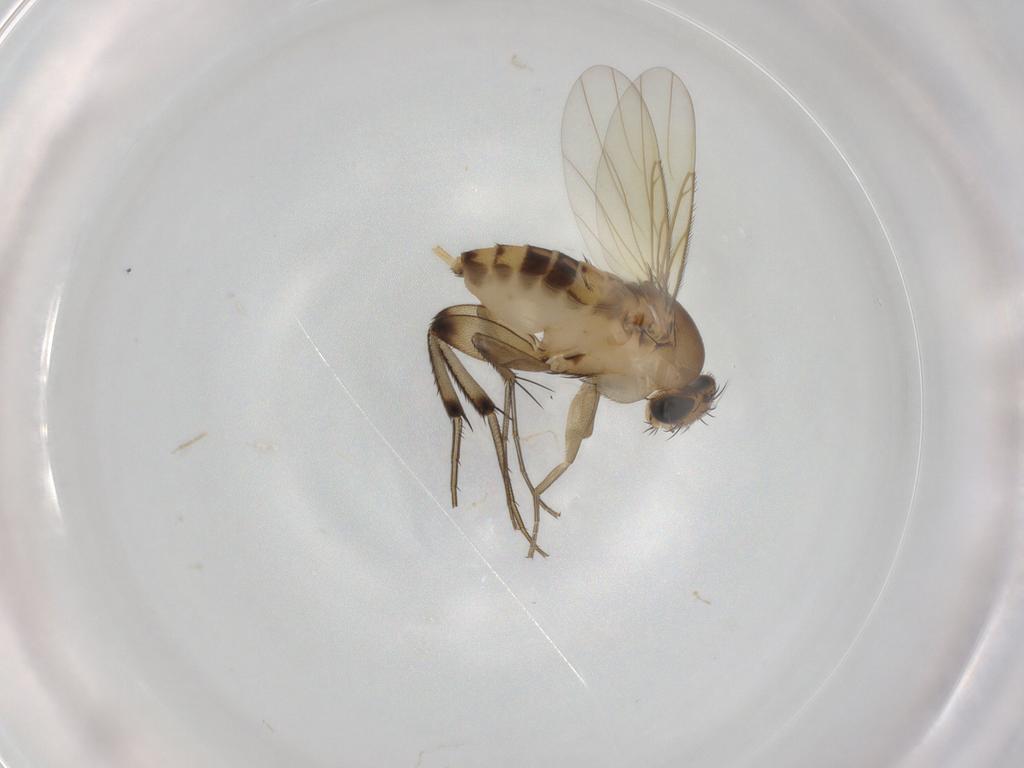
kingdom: Animalia
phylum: Arthropoda
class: Insecta
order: Diptera
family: Phoridae
